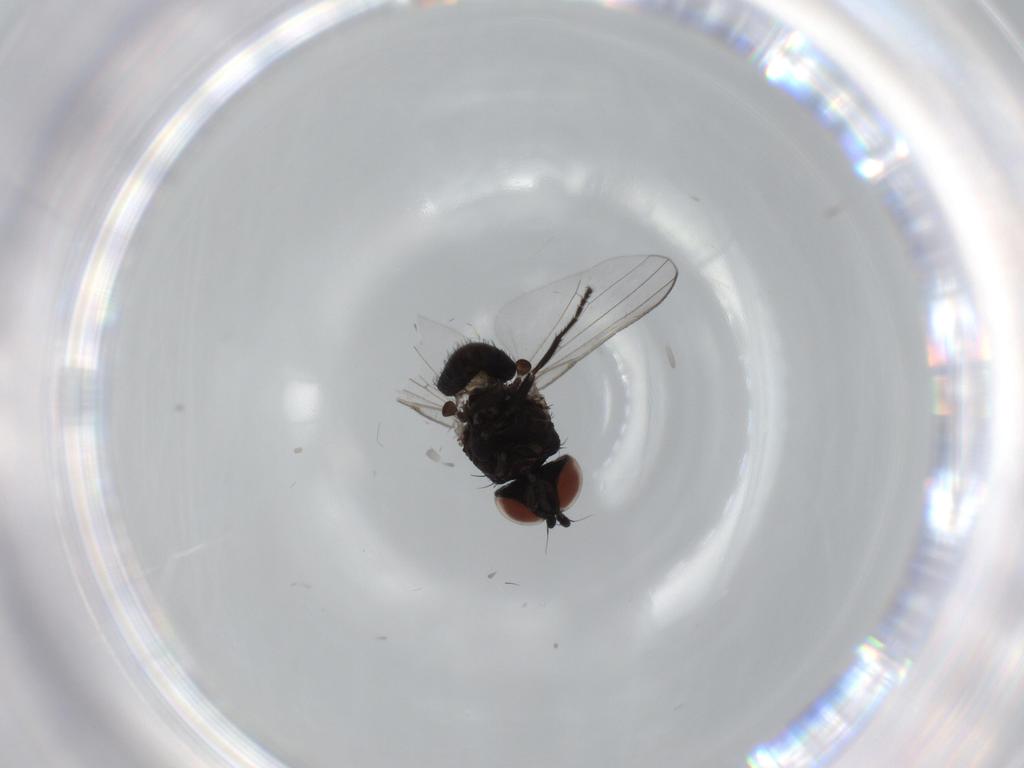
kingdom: Animalia
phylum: Arthropoda
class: Insecta
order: Diptera
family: Milichiidae
